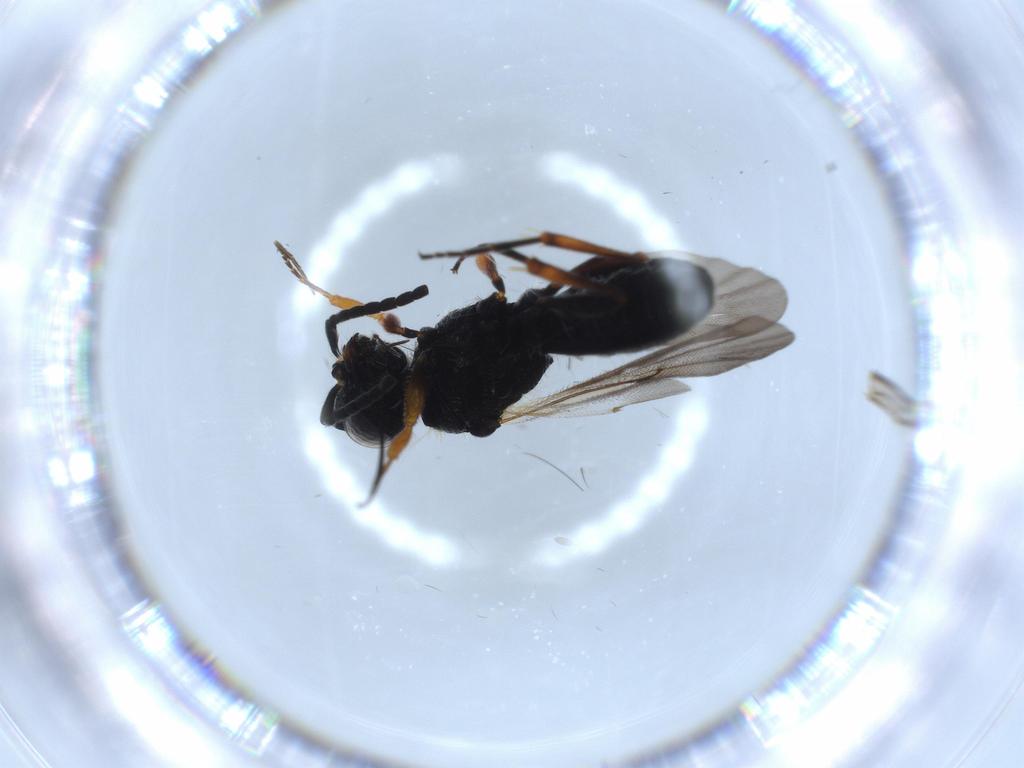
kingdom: Animalia
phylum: Arthropoda
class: Insecta
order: Hymenoptera
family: Scelionidae
